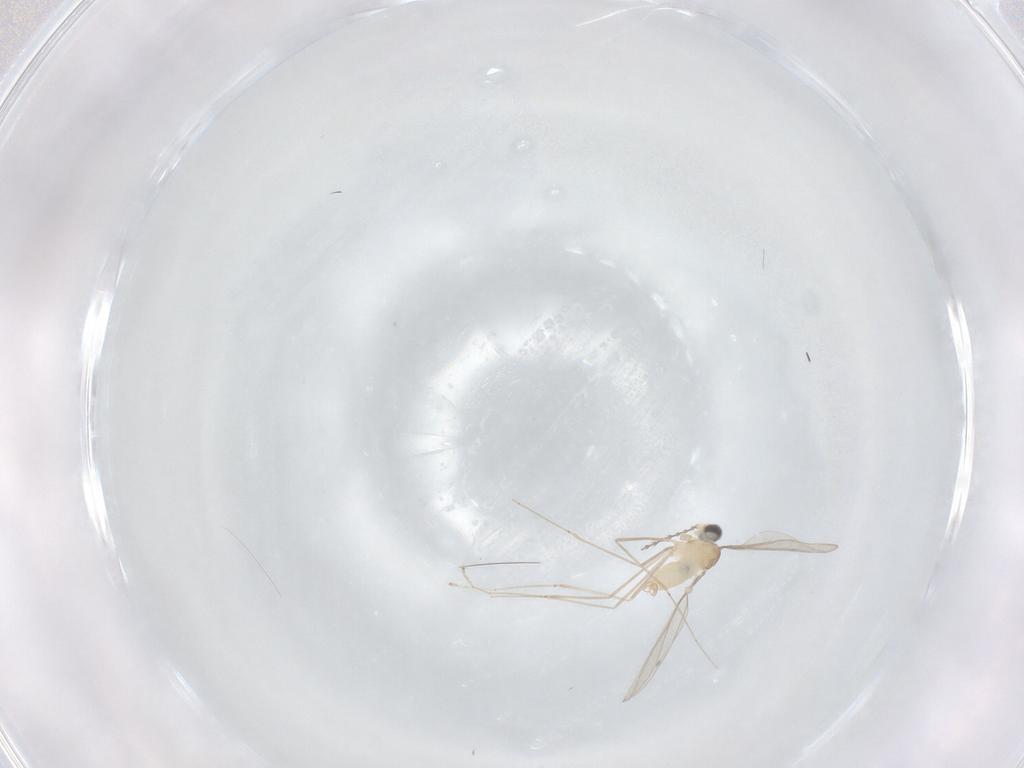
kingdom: Animalia
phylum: Arthropoda
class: Insecta
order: Diptera
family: Cecidomyiidae
